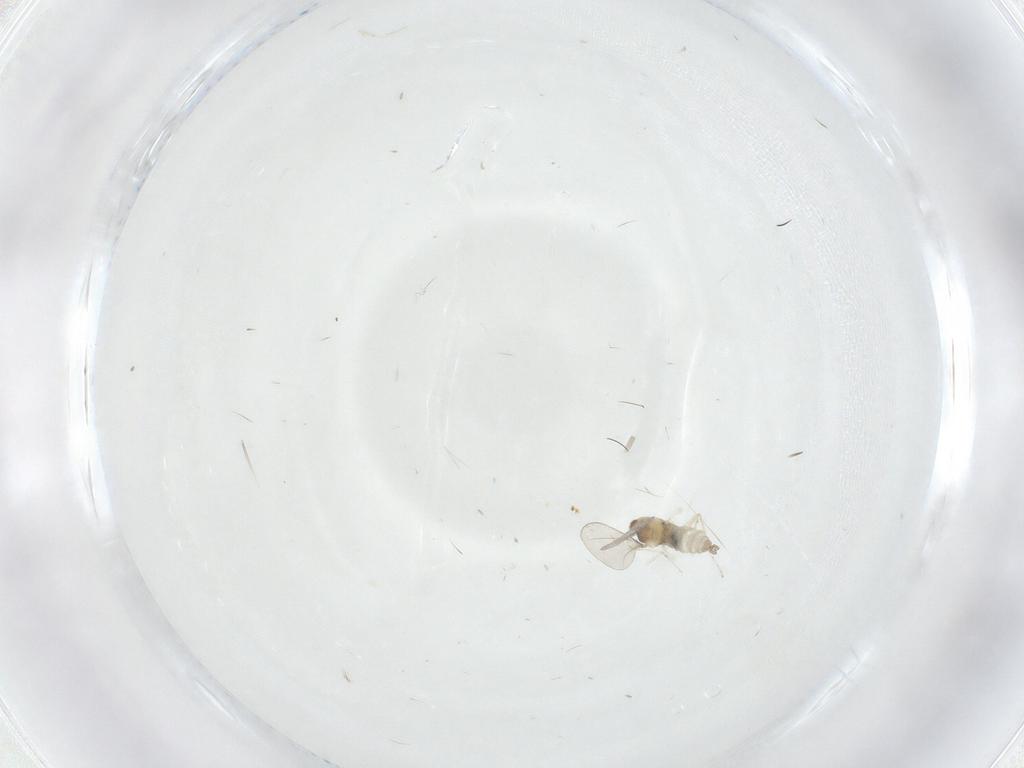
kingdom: Animalia
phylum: Arthropoda
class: Insecta
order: Diptera
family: Cecidomyiidae
